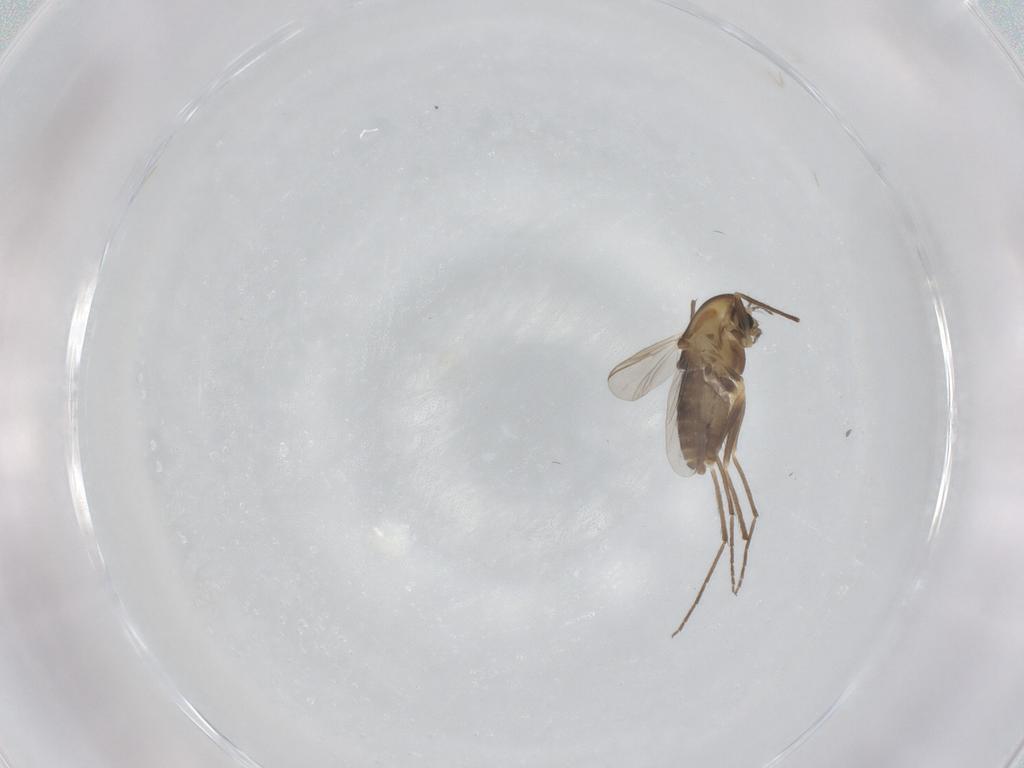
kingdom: Animalia
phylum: Arthropoda
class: Insecta
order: Diptera
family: Chironomidae
